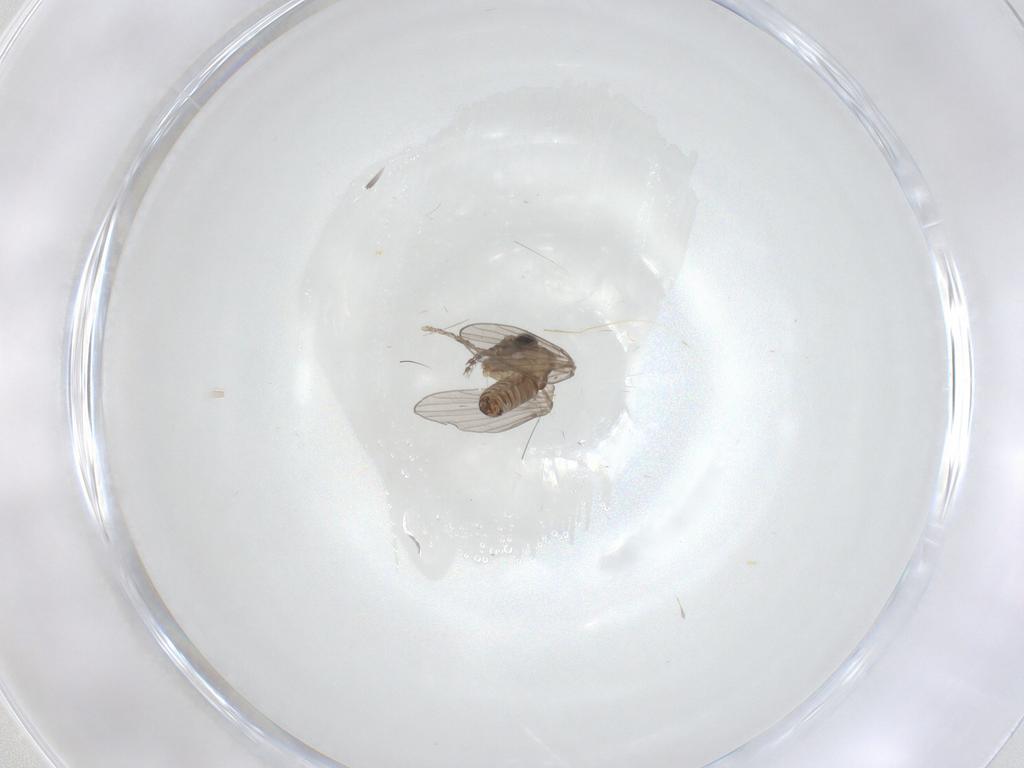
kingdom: Animalia
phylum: Arthropoda
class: Insecta
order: Diptera
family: Psychodidae
